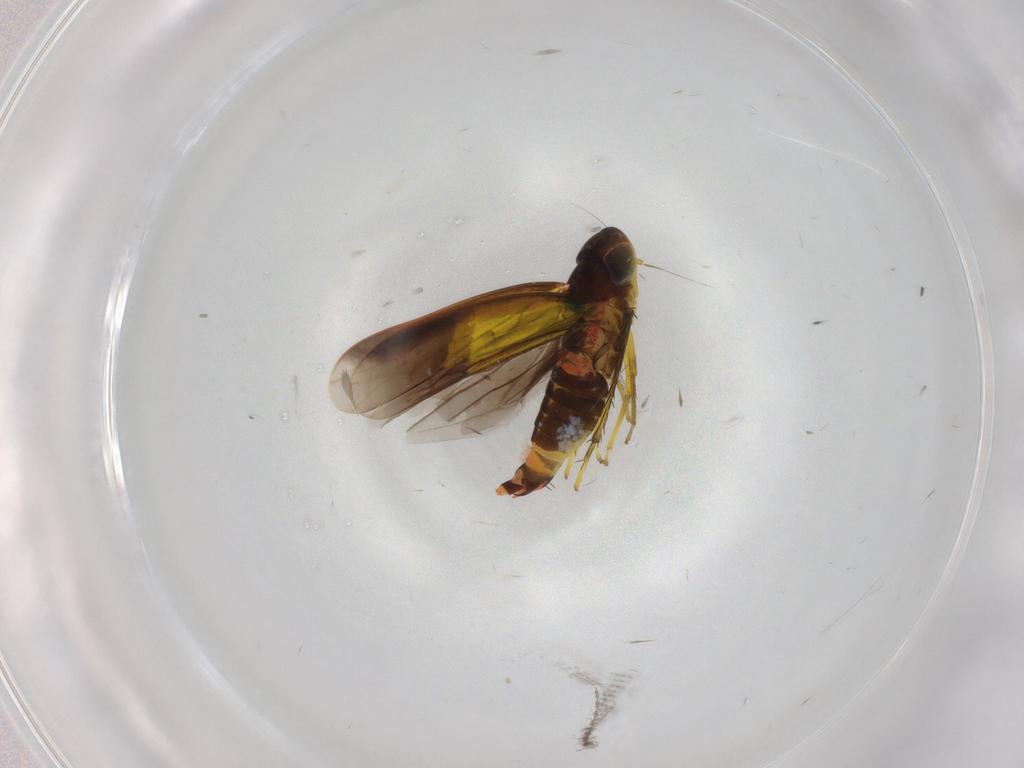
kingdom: Animalia
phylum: Arthropoda
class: Insecta
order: Hemiptera
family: Cicadellidae
